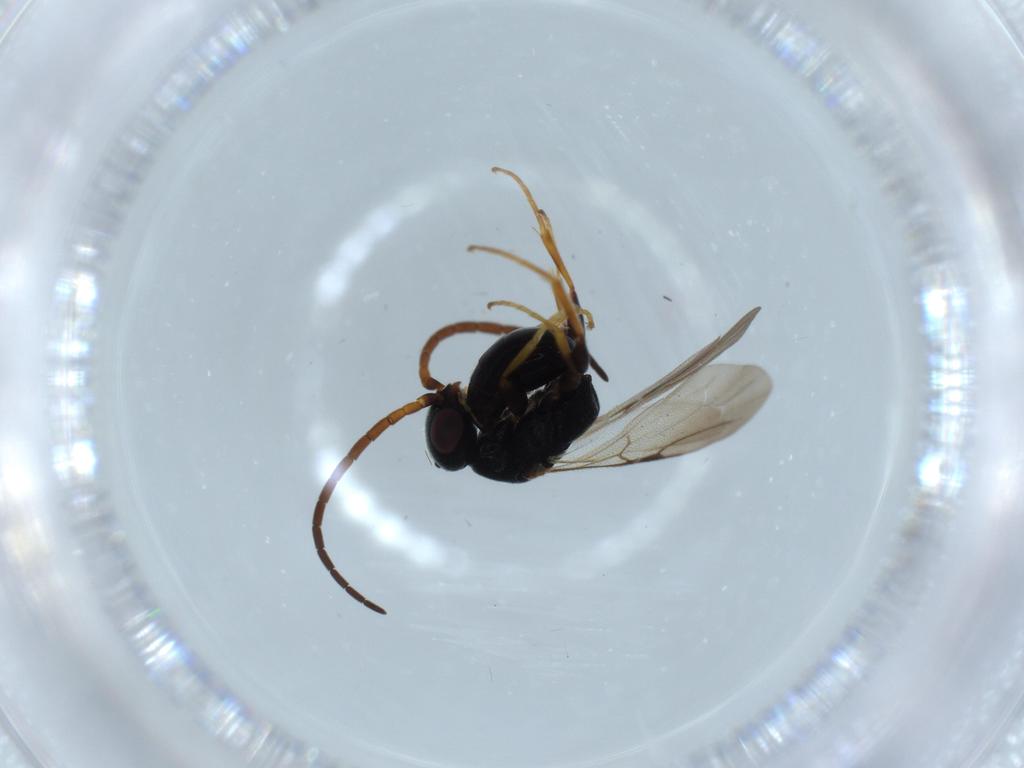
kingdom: Animalia
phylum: Arthropoda
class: Insecta
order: Hymenoptera
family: Bethylidae
